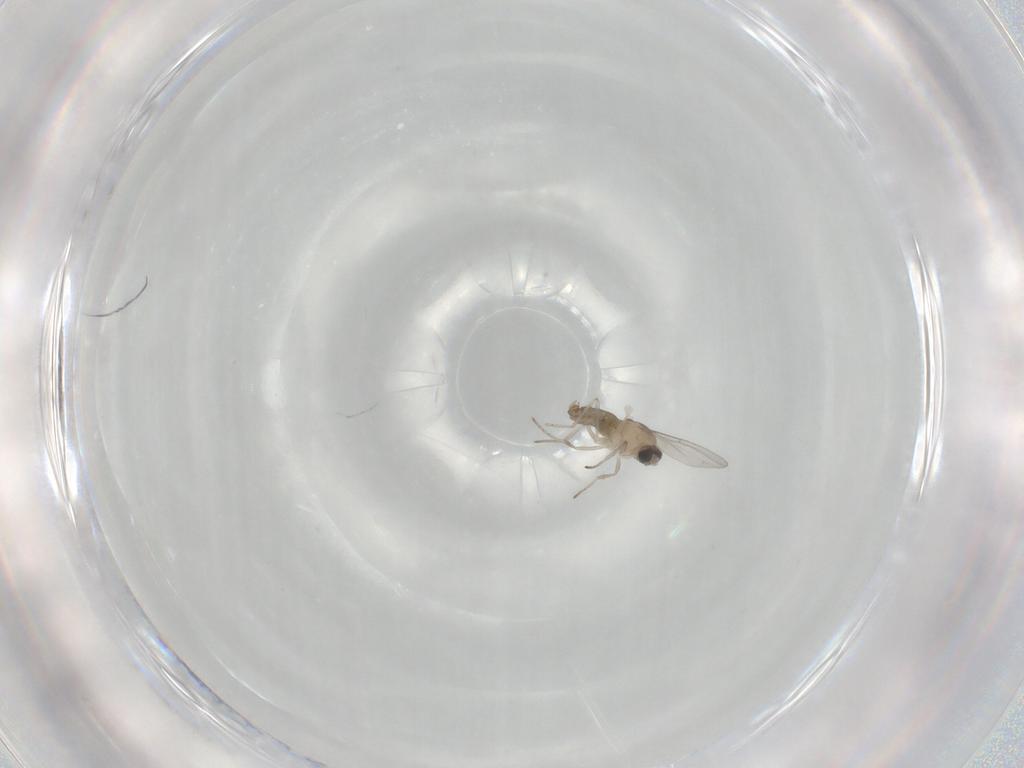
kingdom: Animalia
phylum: Arthropoda
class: Insecta
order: Diptera
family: Cecidomyiidae
